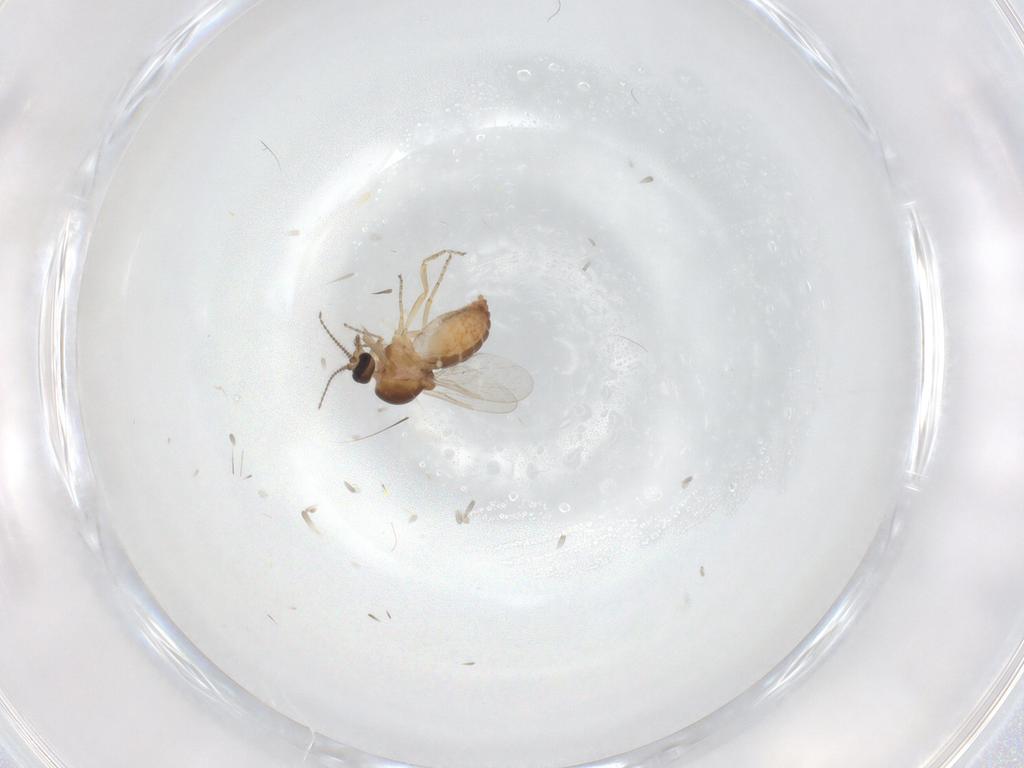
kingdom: Animalia
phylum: Arthropoda
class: Insecta
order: Diptera
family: Ceratopogonidae
